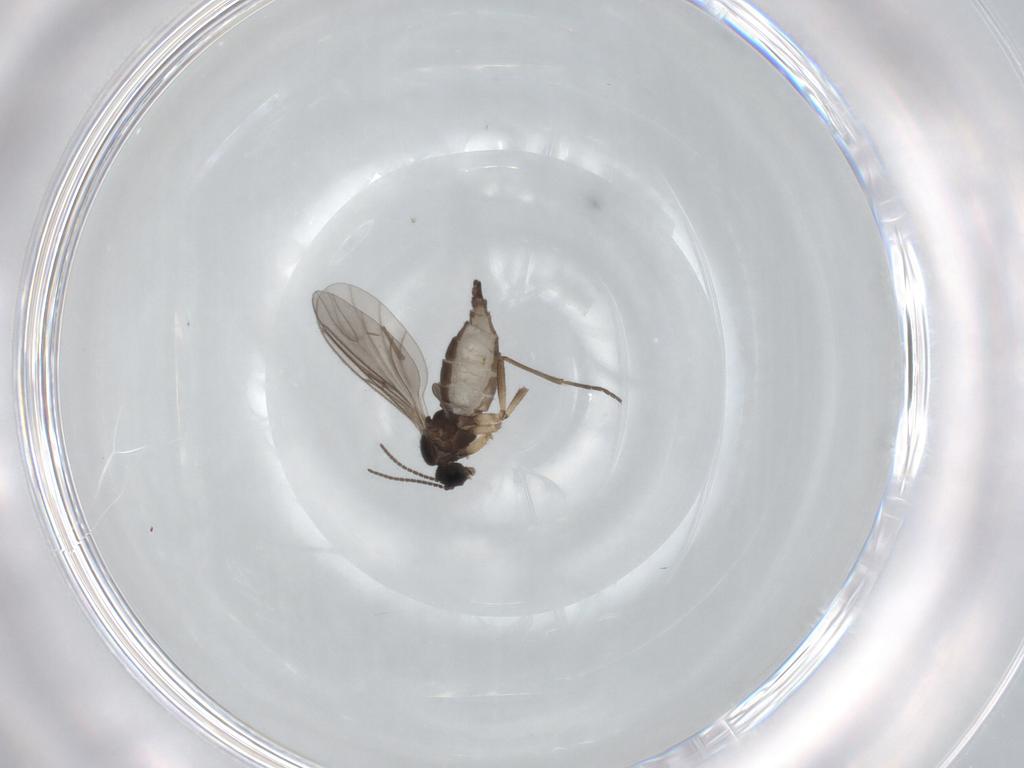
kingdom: Animalia
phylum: Arthropoda
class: Insecta
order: Diptera
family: Sciaridae
